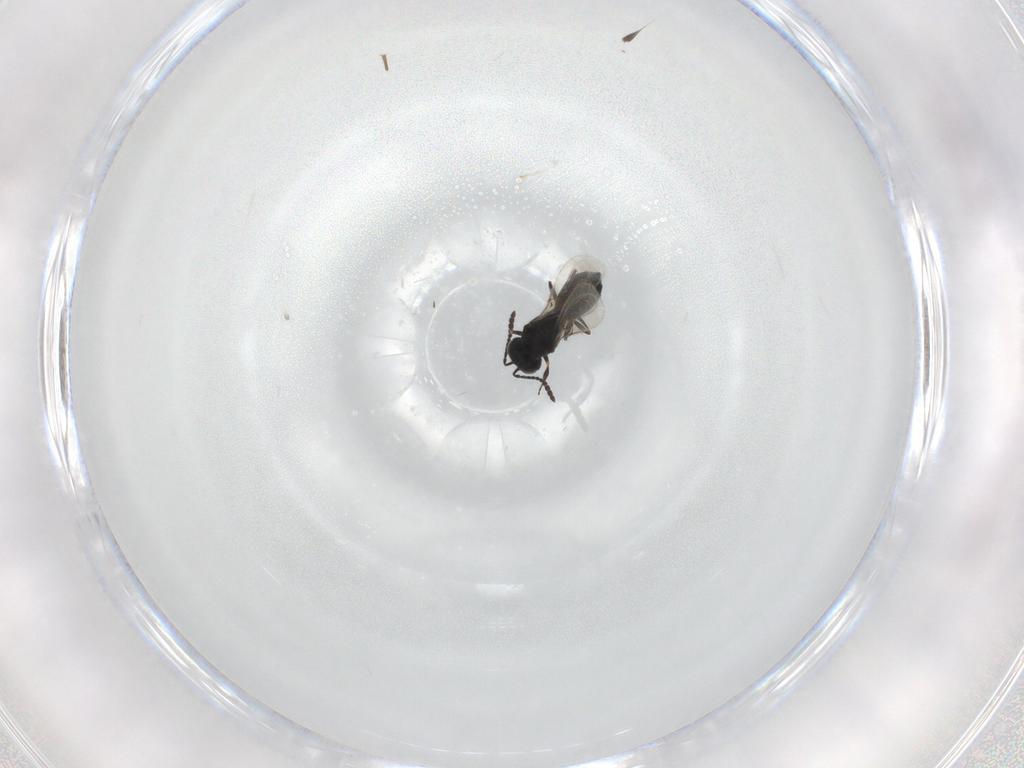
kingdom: Animalia
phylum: Arthropoda
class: Insecta
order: Hymenoptera
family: Scelionidae
